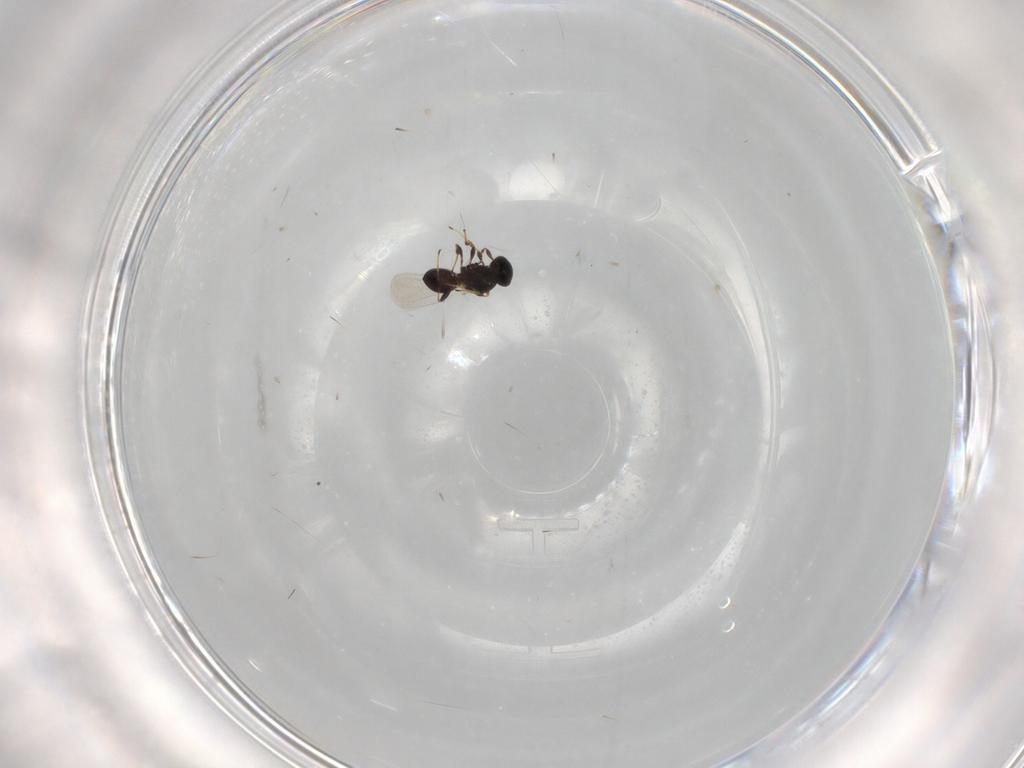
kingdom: Animalia
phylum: Arthropoda
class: Insecta
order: Hymenoptera
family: Platygastridae
